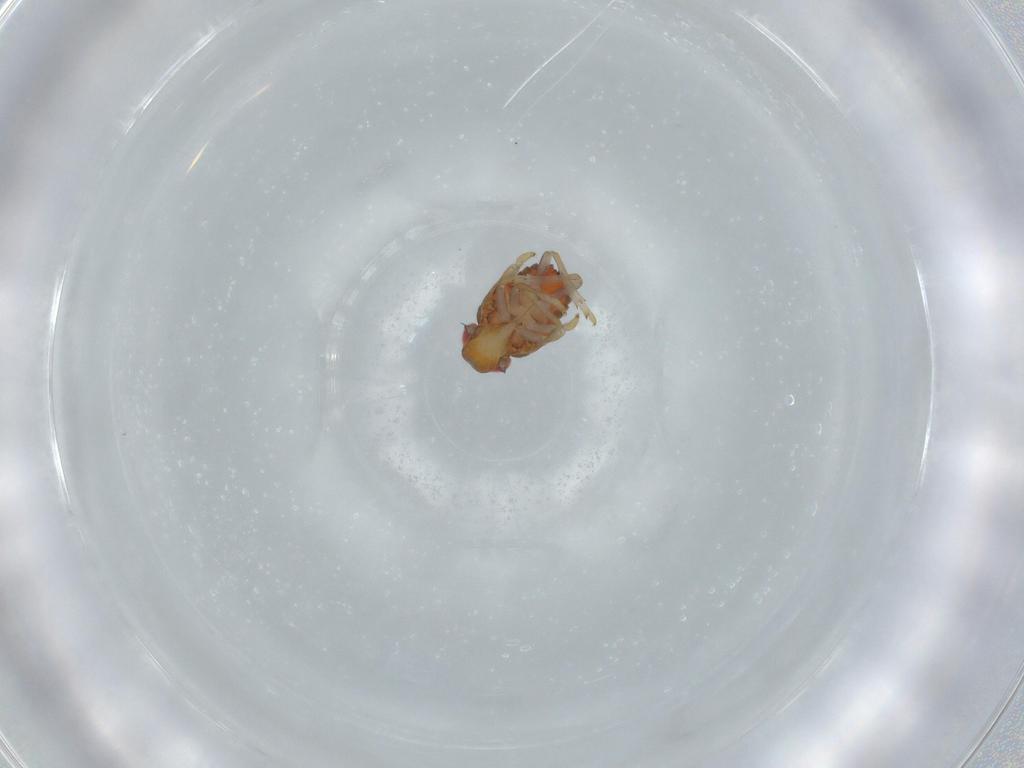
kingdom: Animalia
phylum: Arthropoda
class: Insecta
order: Hemiptera
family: Issidae
